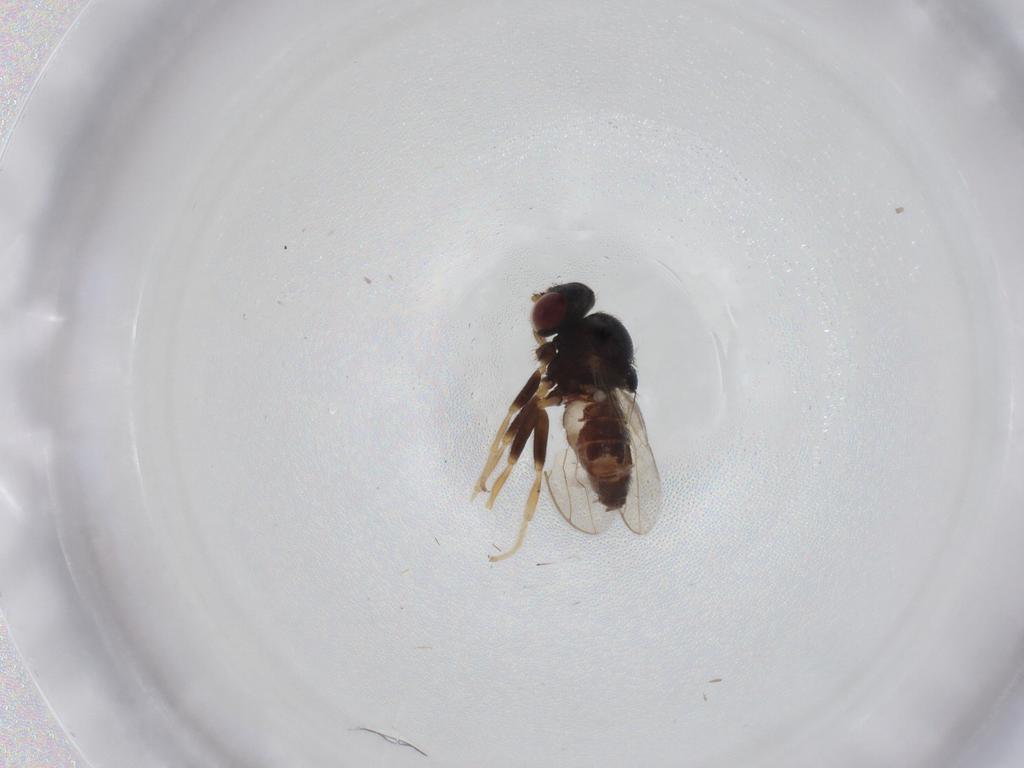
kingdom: Animalia
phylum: Arthropoda
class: Insecta
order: Diptera
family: Chloropidae
